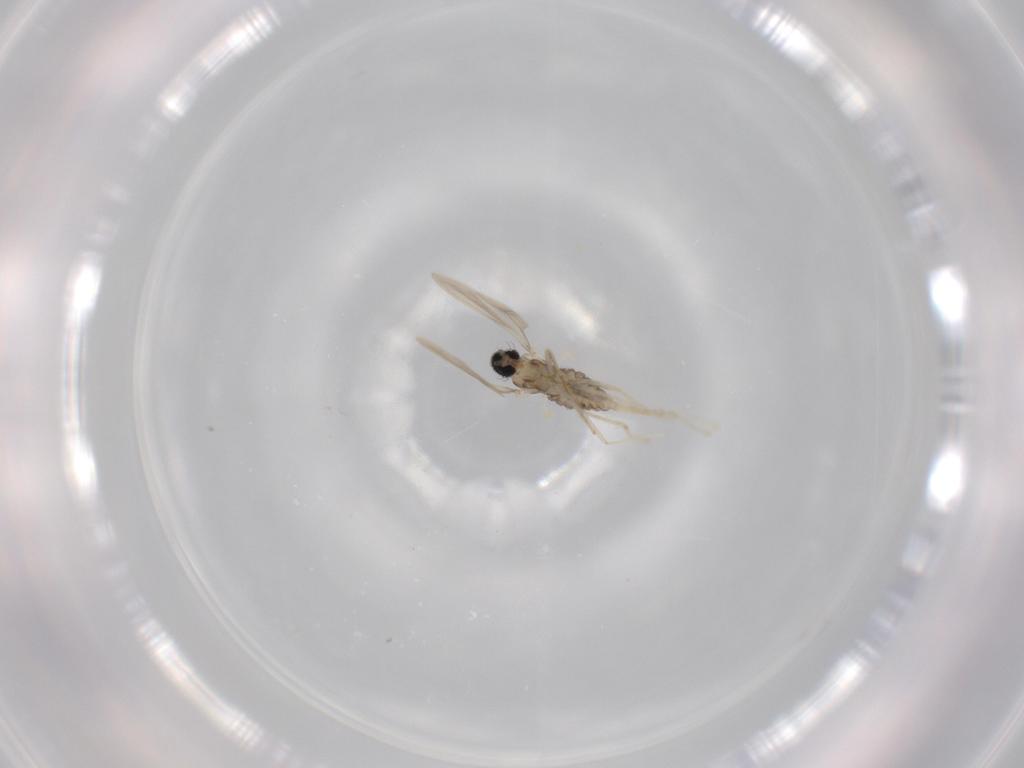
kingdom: Animalia
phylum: Arthropoda
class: Insecta
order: Diptera
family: Cecidomyiidae
